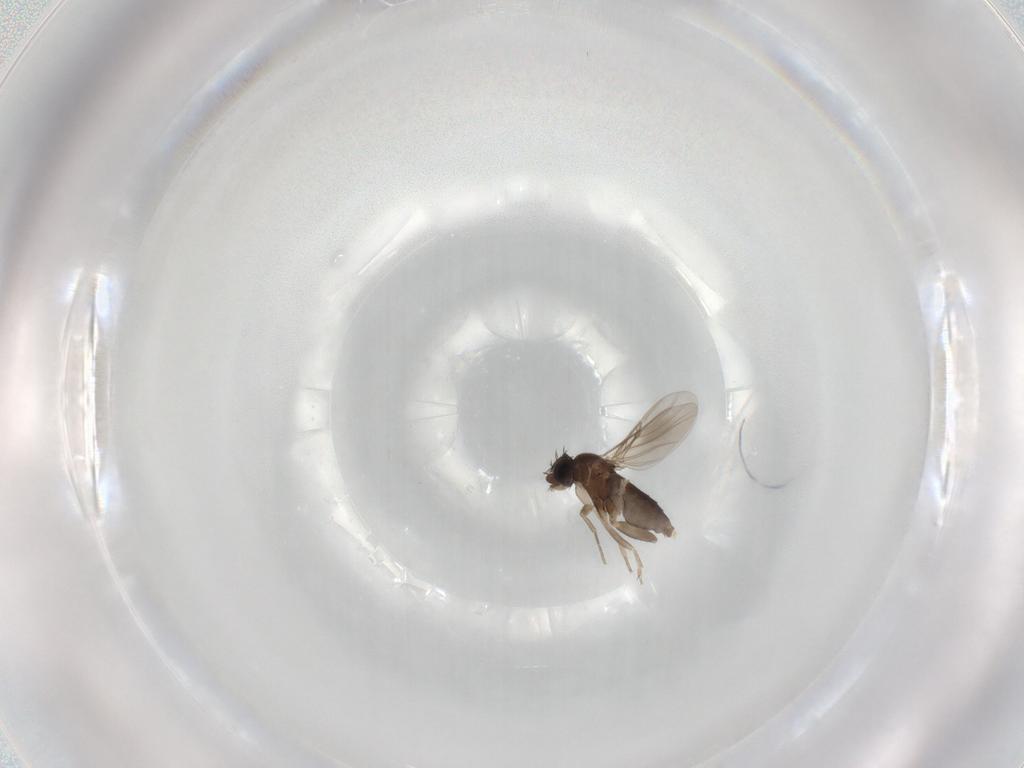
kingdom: Animalia
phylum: Arthropoda
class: Insecta
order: Diptera
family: Phoridae
